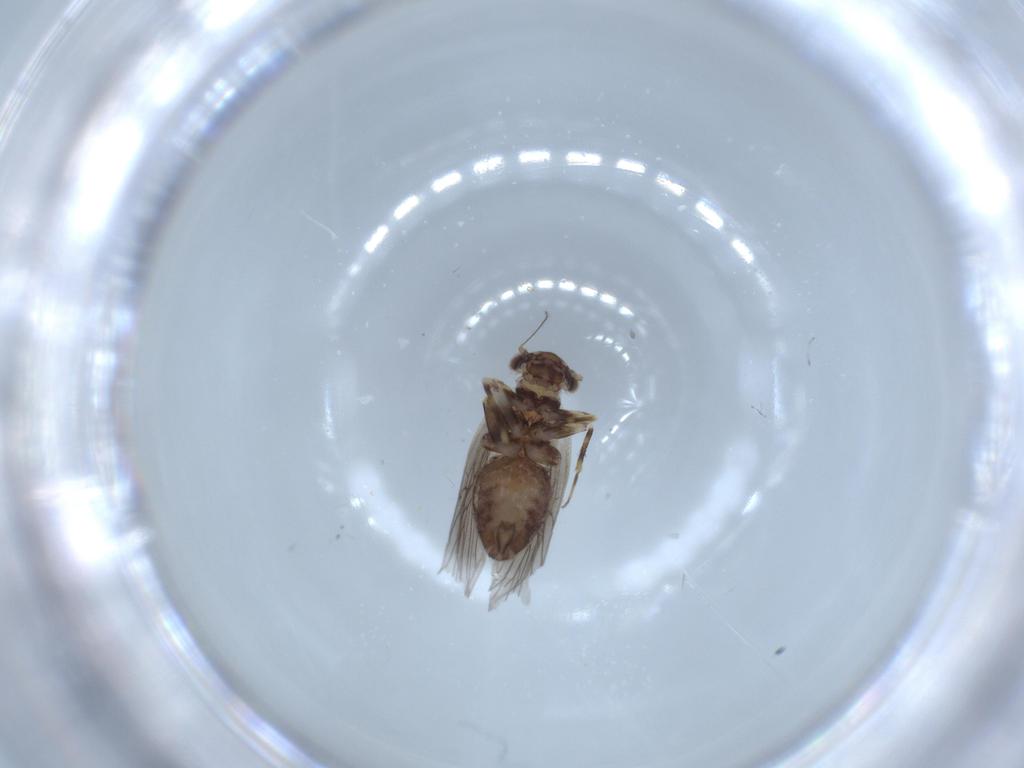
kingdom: Animalia
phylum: Arthropoda
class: Insecta
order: Psocodea
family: Lepidopsocidae
